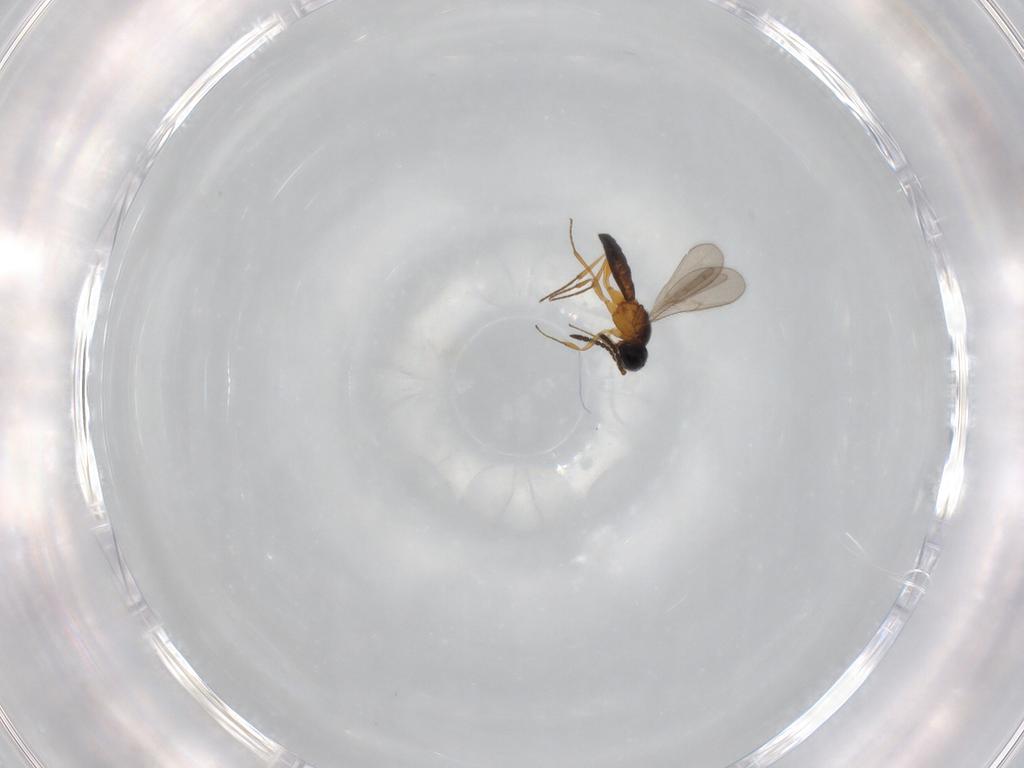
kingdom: Animalia
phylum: Arthropoda
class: Insecta
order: Hymenoptera
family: Scelionidae
